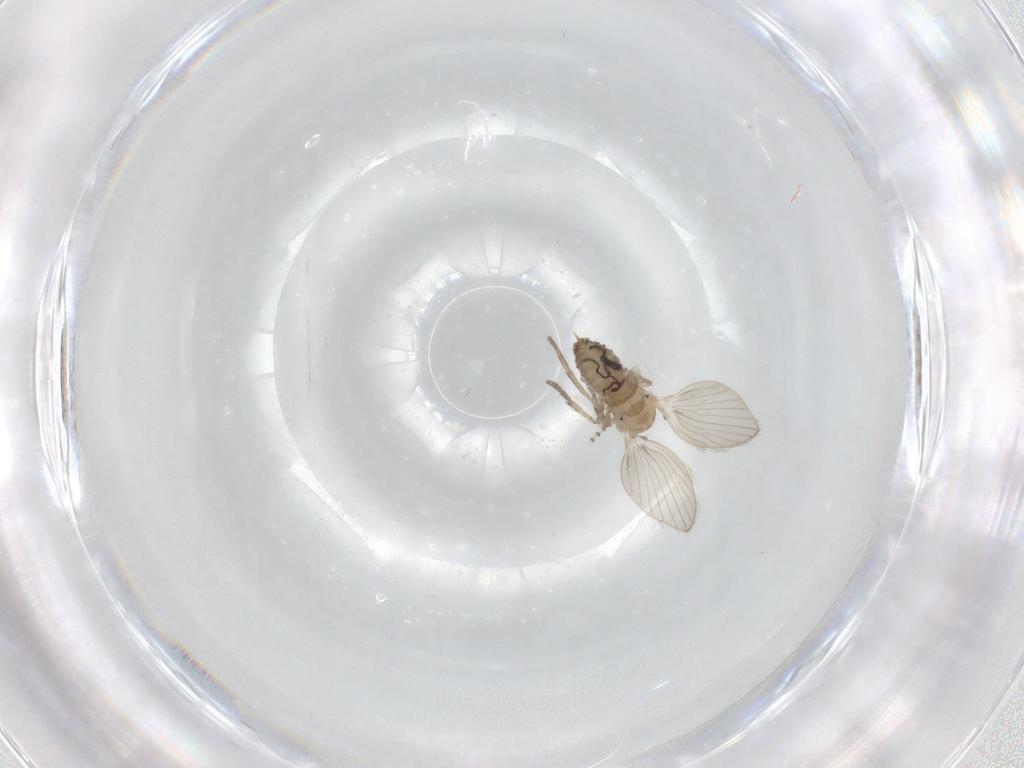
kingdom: Animalia
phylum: Arthropoda
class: Insecta
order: Diptera
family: Psychodidae
